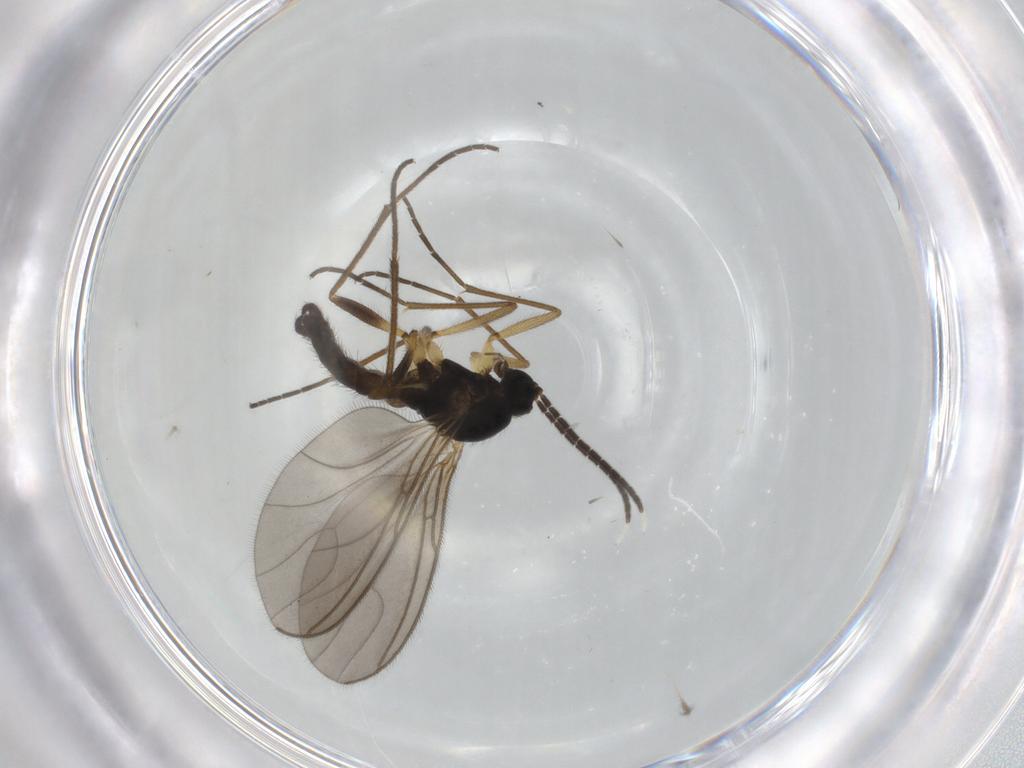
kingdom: Animalia
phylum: Arthropoda
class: Insecta
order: Diptera
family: Sciaridae
